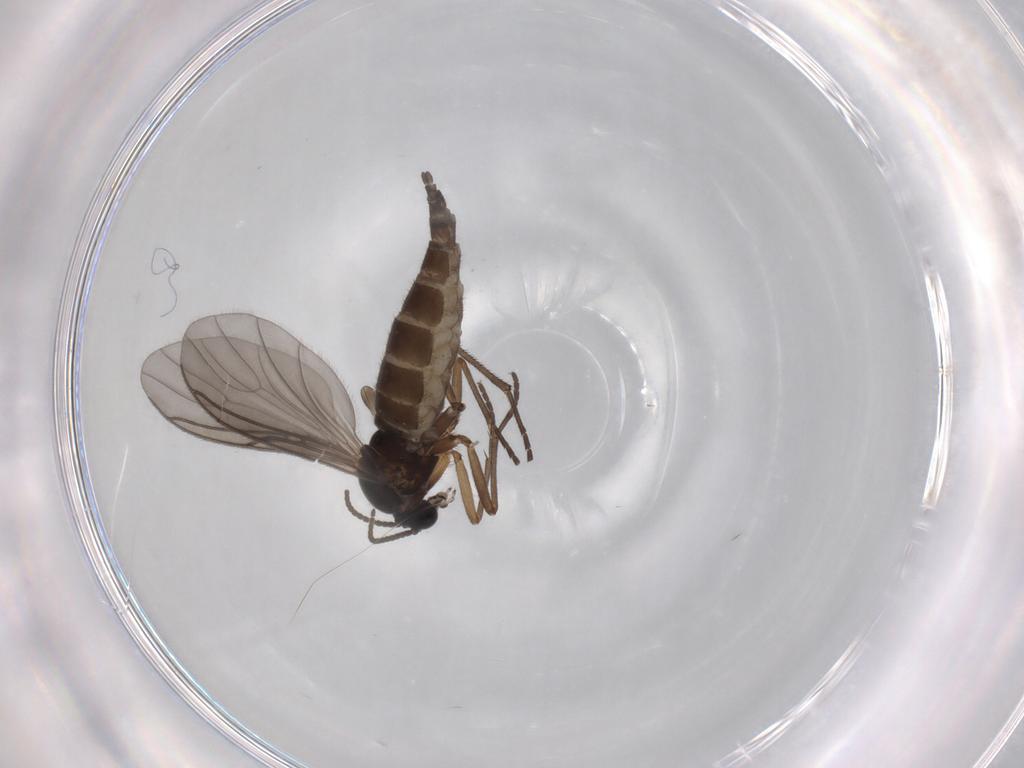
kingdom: Animalia
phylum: Arthropoda
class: Insecta
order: Diptera
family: Sciaridae
